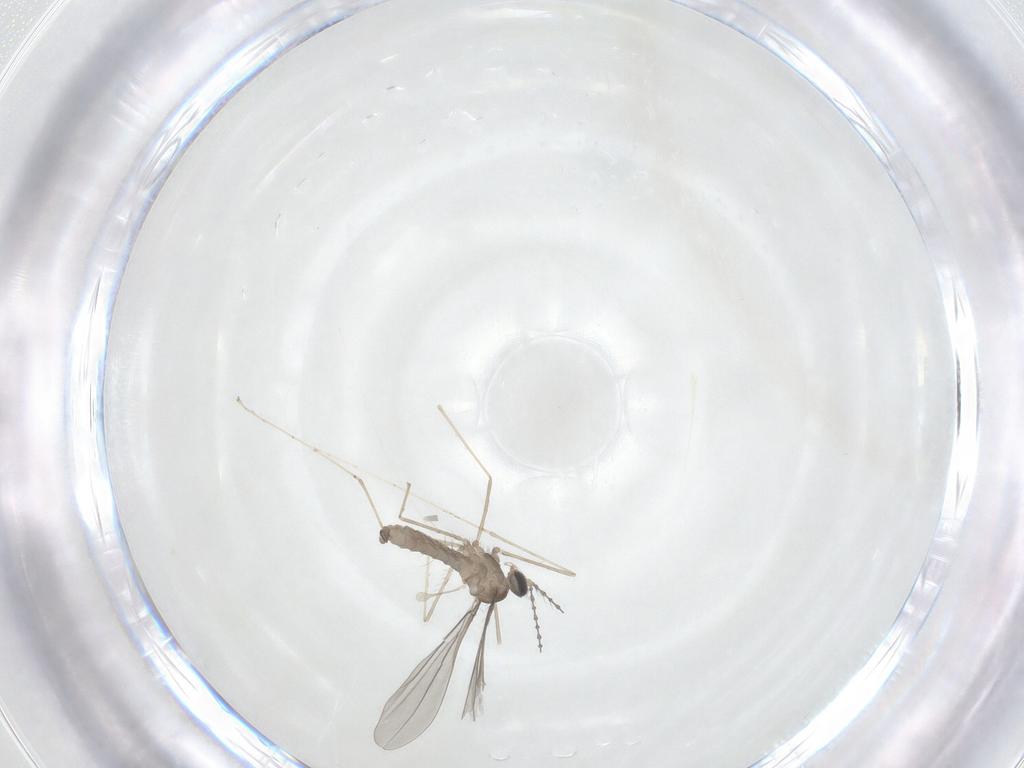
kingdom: Animalia
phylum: Arthropoda
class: Insecta
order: Diptera
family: Cecidomyiidae
